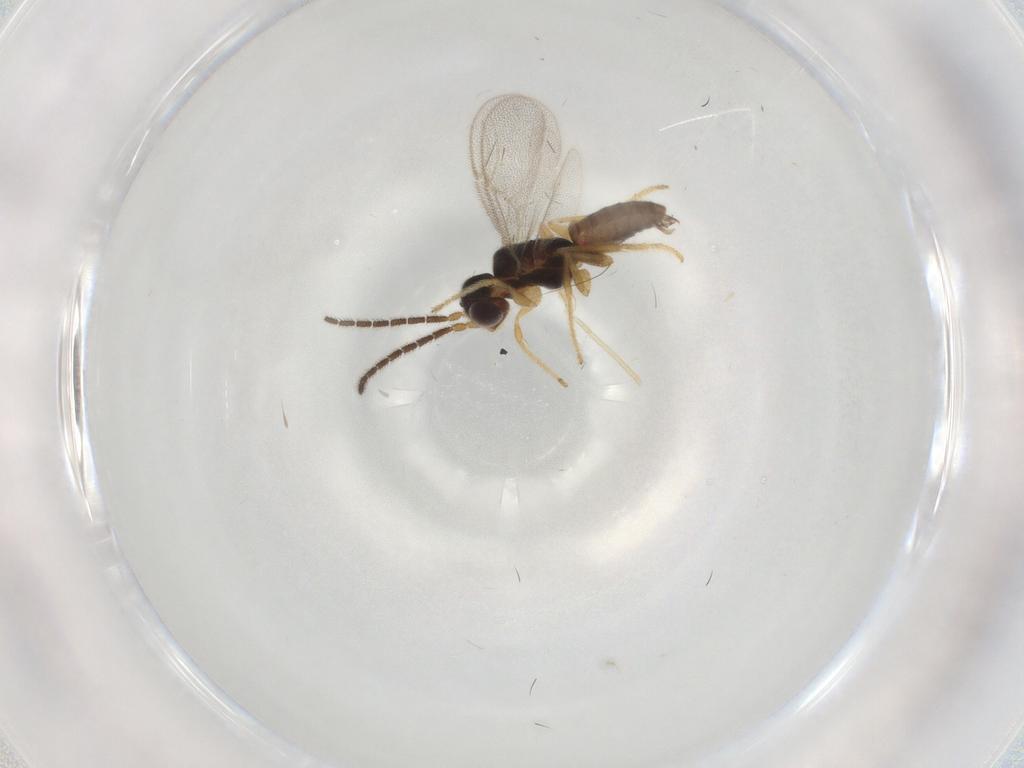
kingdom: Animalia
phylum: Arthropoda
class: Insecta
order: Hymenoptera
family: Dryinidae
